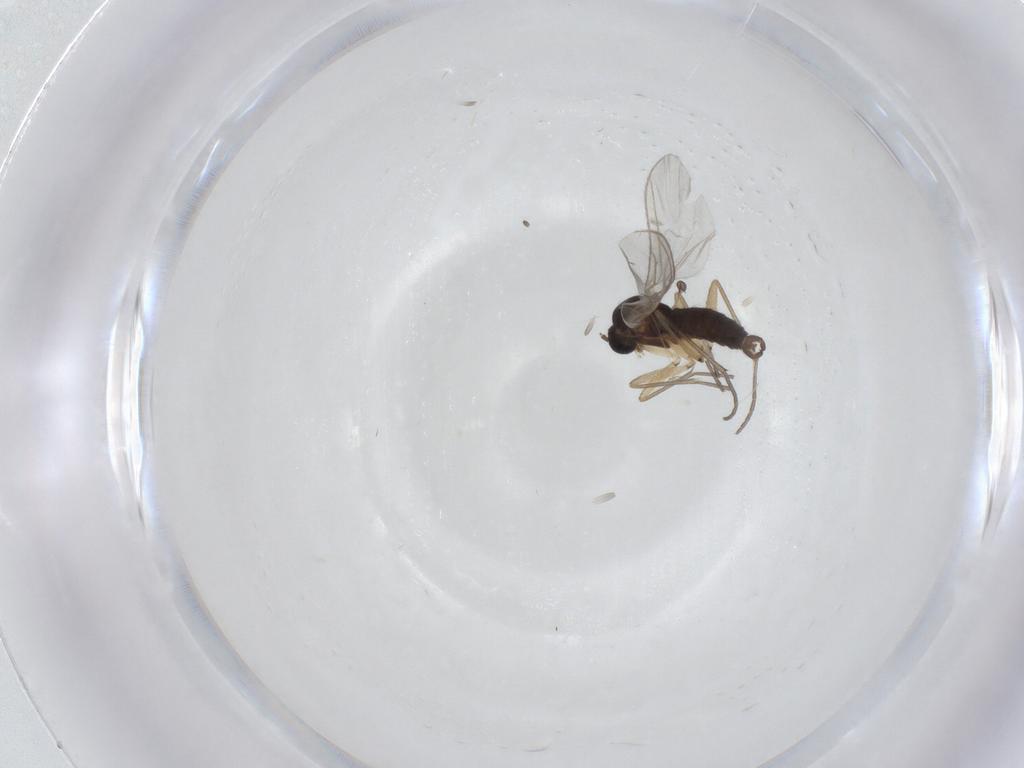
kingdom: Animalia
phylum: Arthropoda
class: Insecta
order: Diptera
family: Sciaridae
